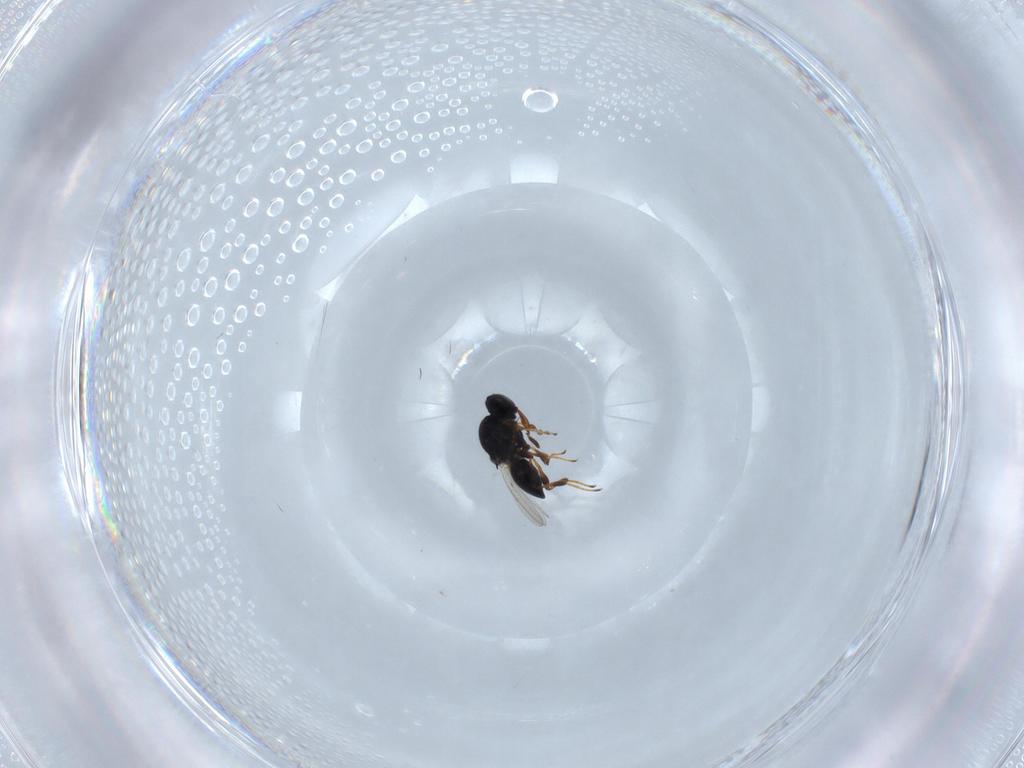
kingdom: Animalia
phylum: Arthropoda
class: Insecta
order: Hymenoptera
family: Platygastridae
